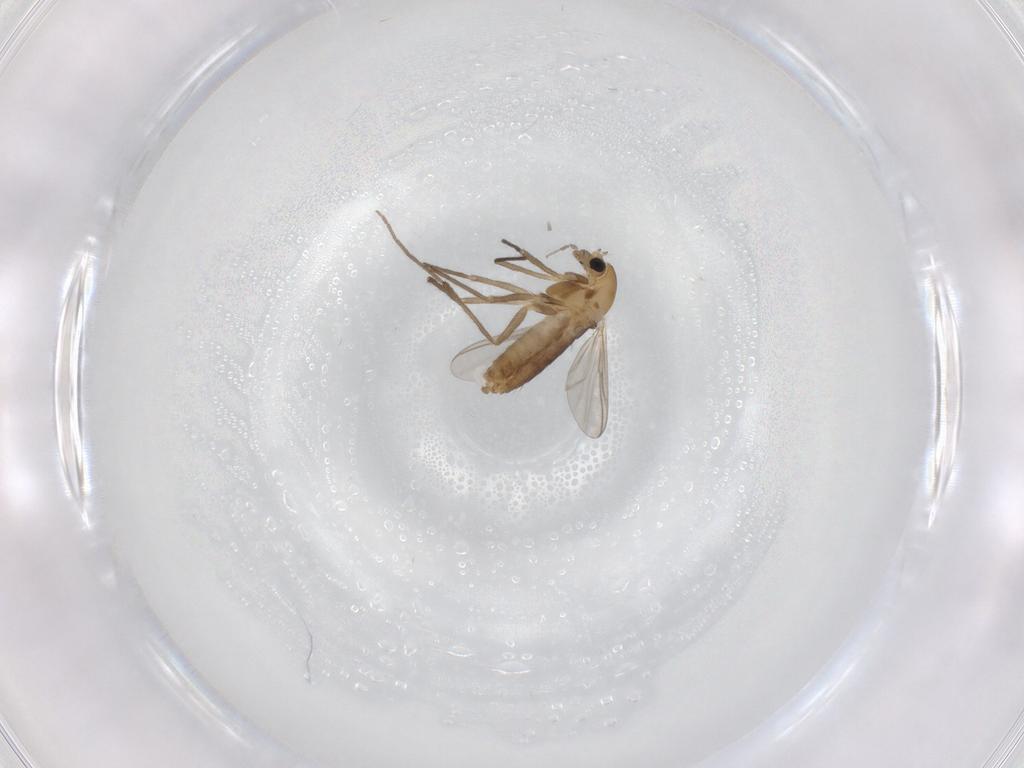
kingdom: Animalia
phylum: Arthropoda
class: Insecta
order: Diptera
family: Chironomidae
